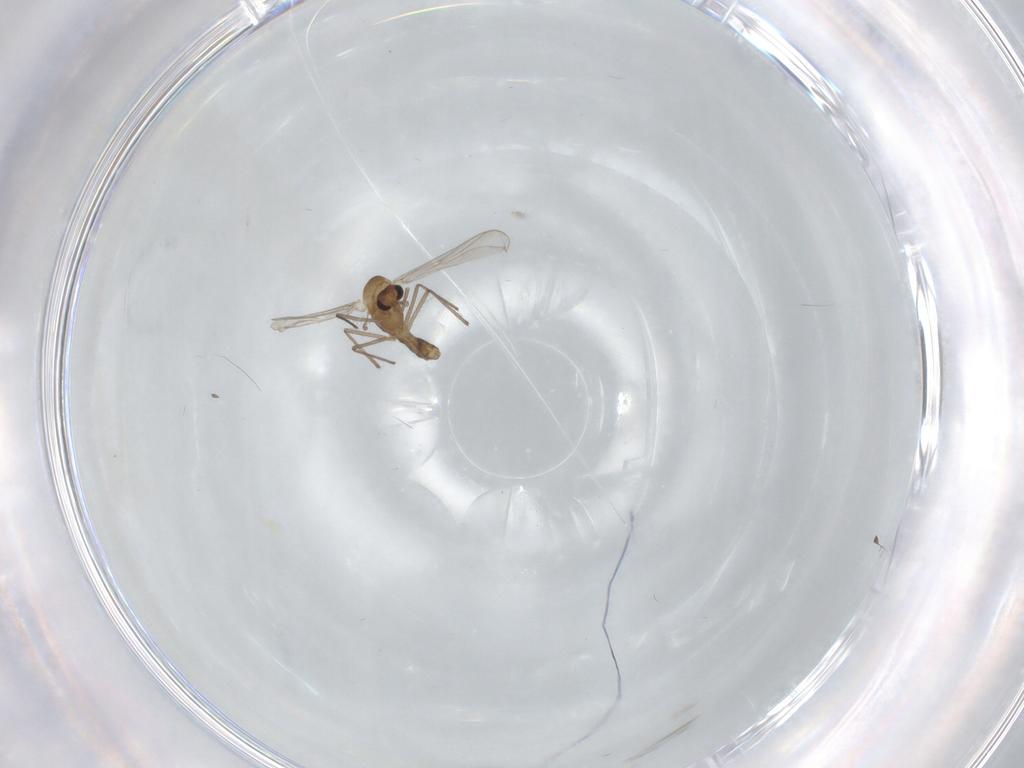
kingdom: Animalia
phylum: Arthropoda
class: Insecta
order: Diptera
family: Chironomidae
